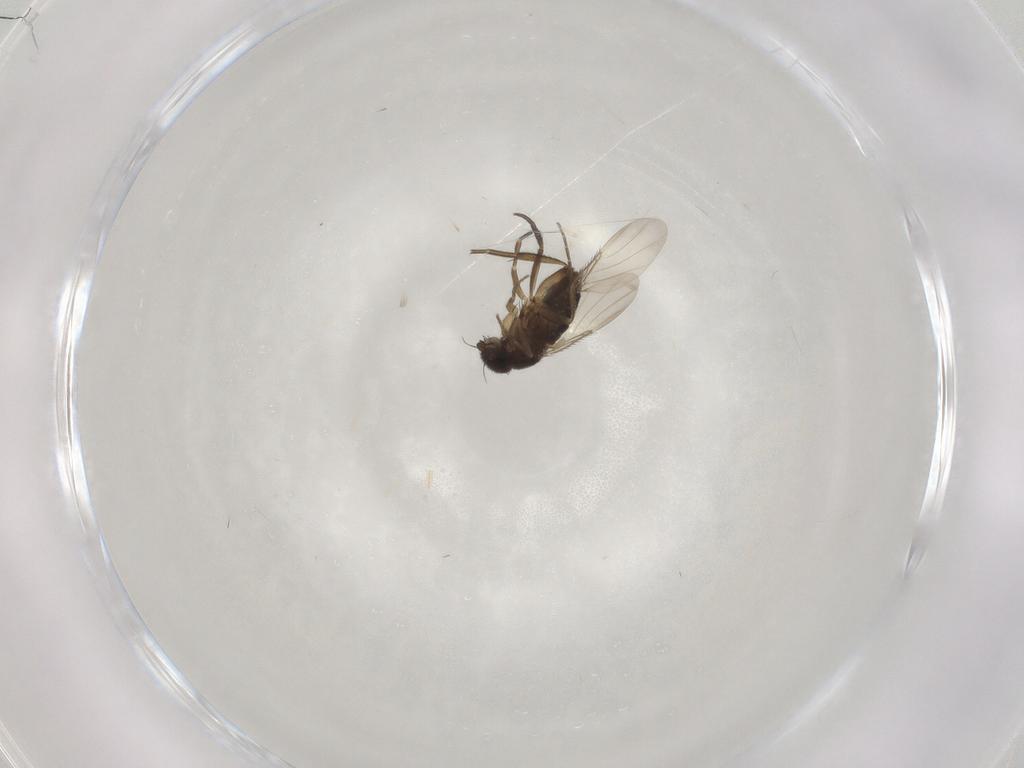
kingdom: Animalia
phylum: Arthropoda
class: Insecta
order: Diptera
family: Phoridae
